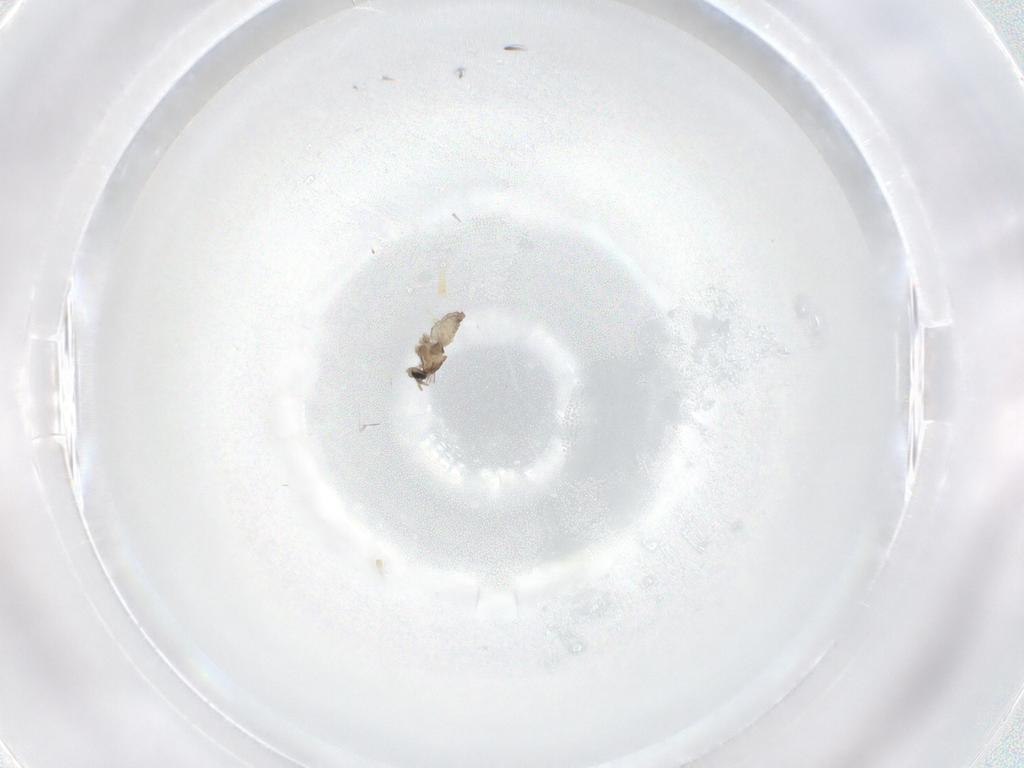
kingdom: Animalia
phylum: Arthropoda
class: Insecta
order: Diptera
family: Cecidomyiidae
